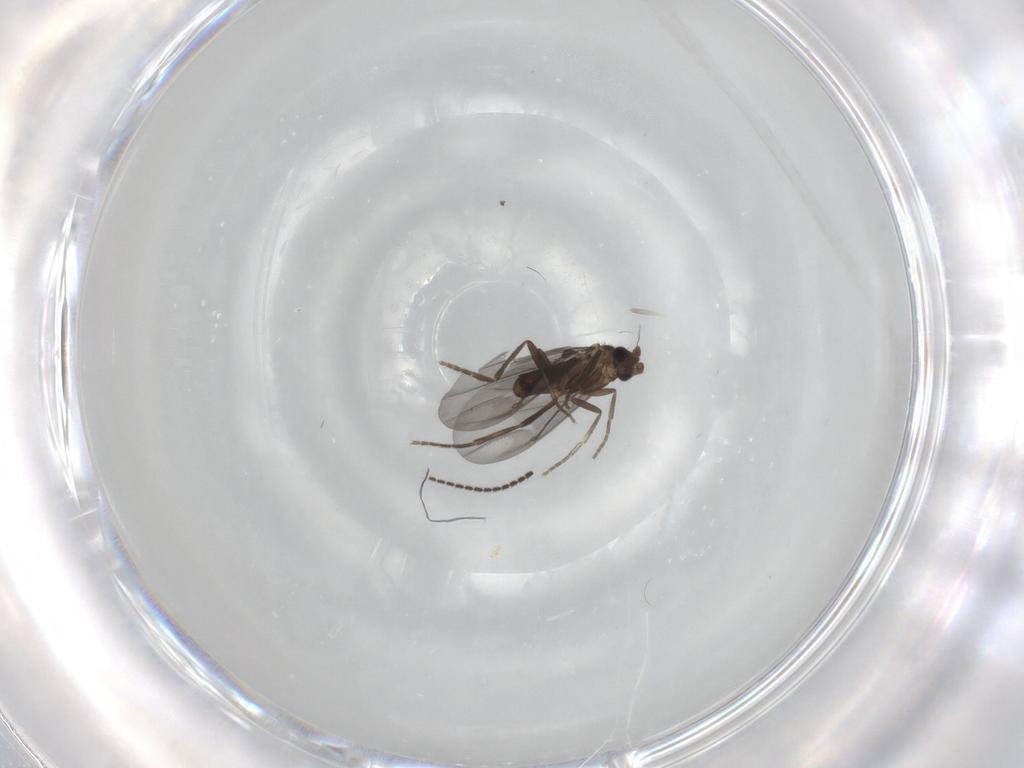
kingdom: Animalia
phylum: Arthropoda
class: Insecta
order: Diptera
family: Phoridae
